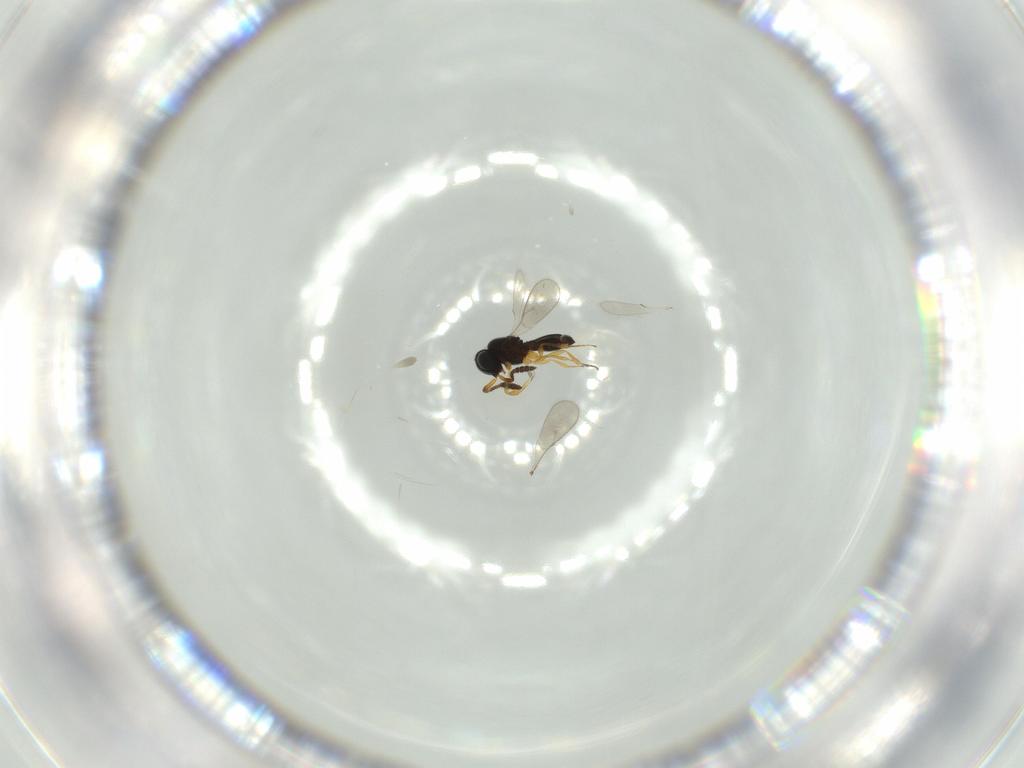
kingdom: Animalia
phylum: Arthropoda
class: Insecta
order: Hymenoptera
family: Scelionidae
